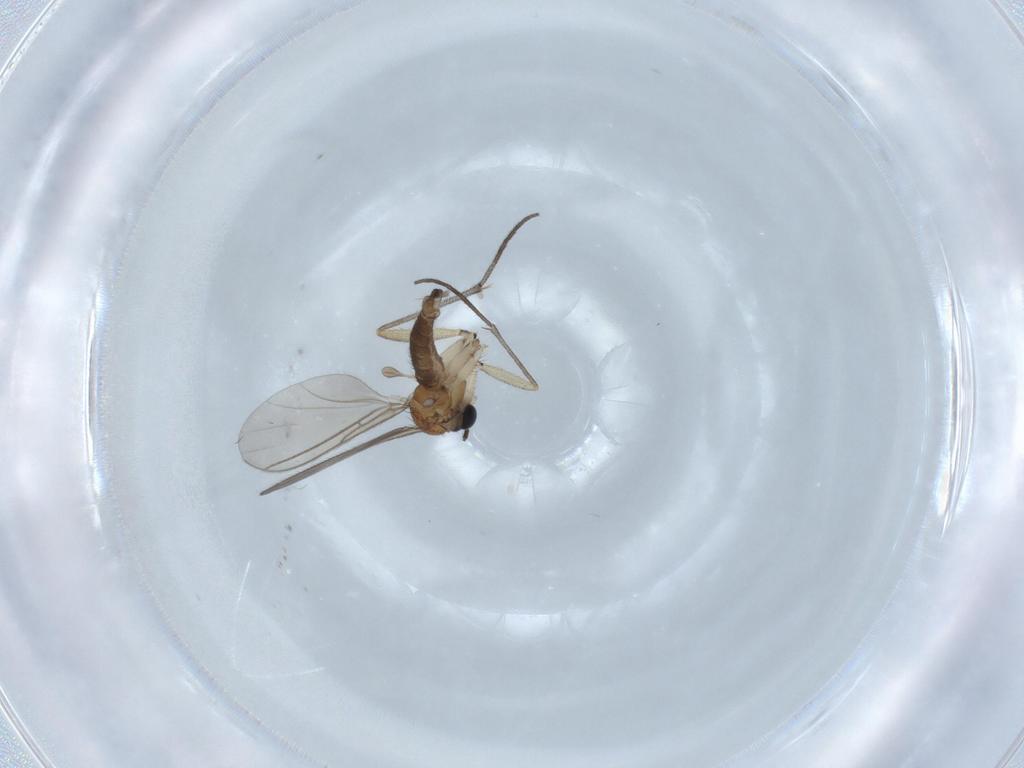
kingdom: Animalia
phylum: Arthropoda
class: Insecta
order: Diptera
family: Sciaridae
